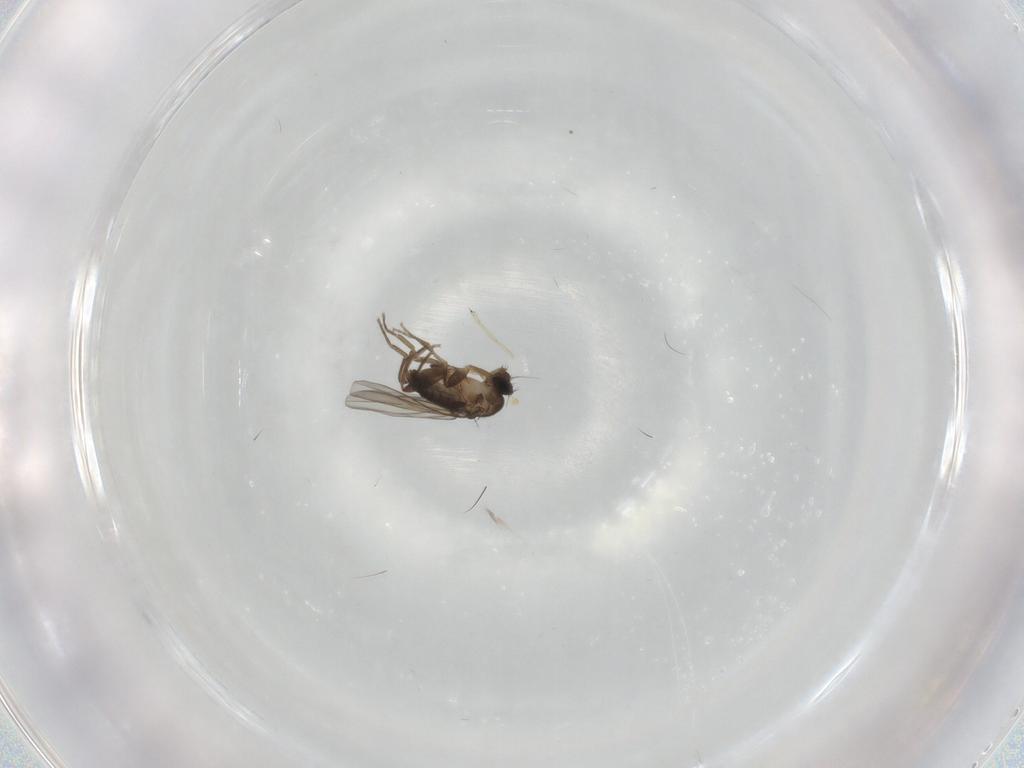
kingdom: Animalia
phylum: Arthropoda
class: Insecta
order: Diptera
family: Phoridae
